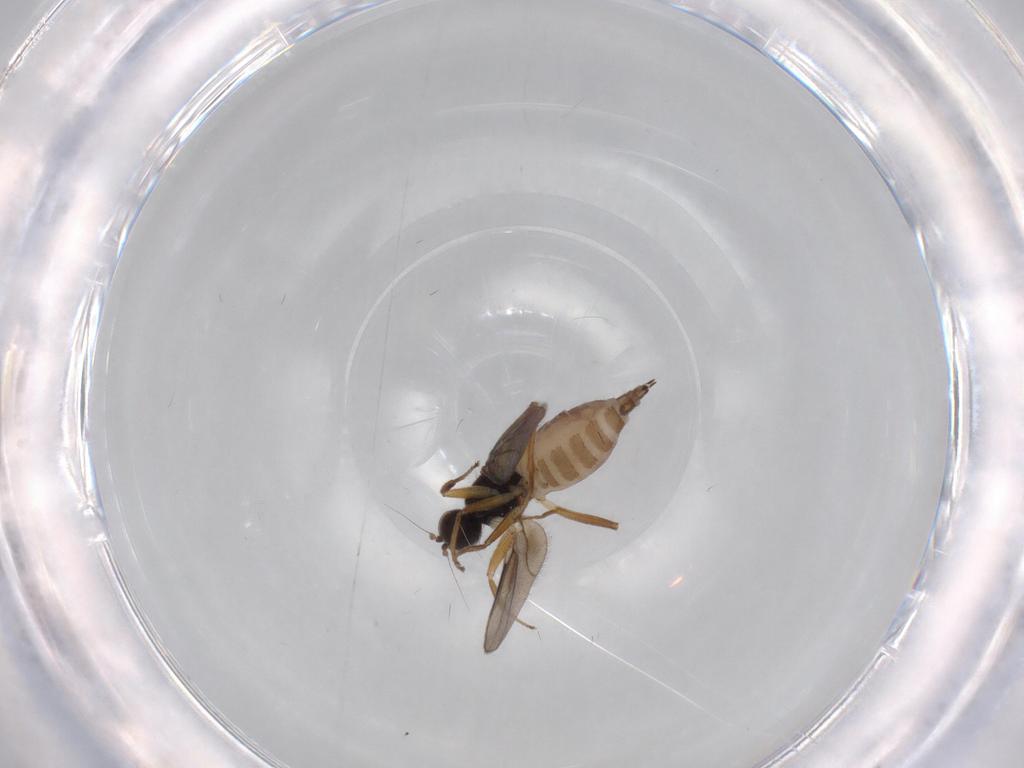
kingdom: Animalia
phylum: Arthropoda
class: Insecta
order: Diptera
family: Hybotidae
